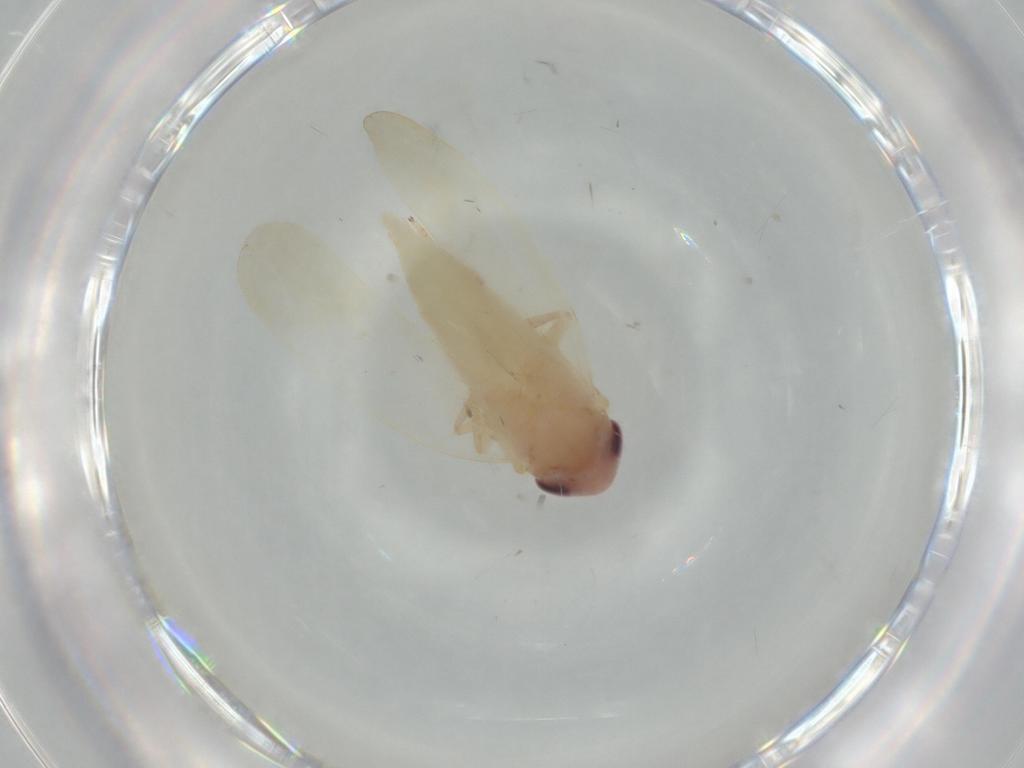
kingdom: Animalia
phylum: Arthropoda
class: Insecta
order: Hemiptera
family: Cicadellidae
